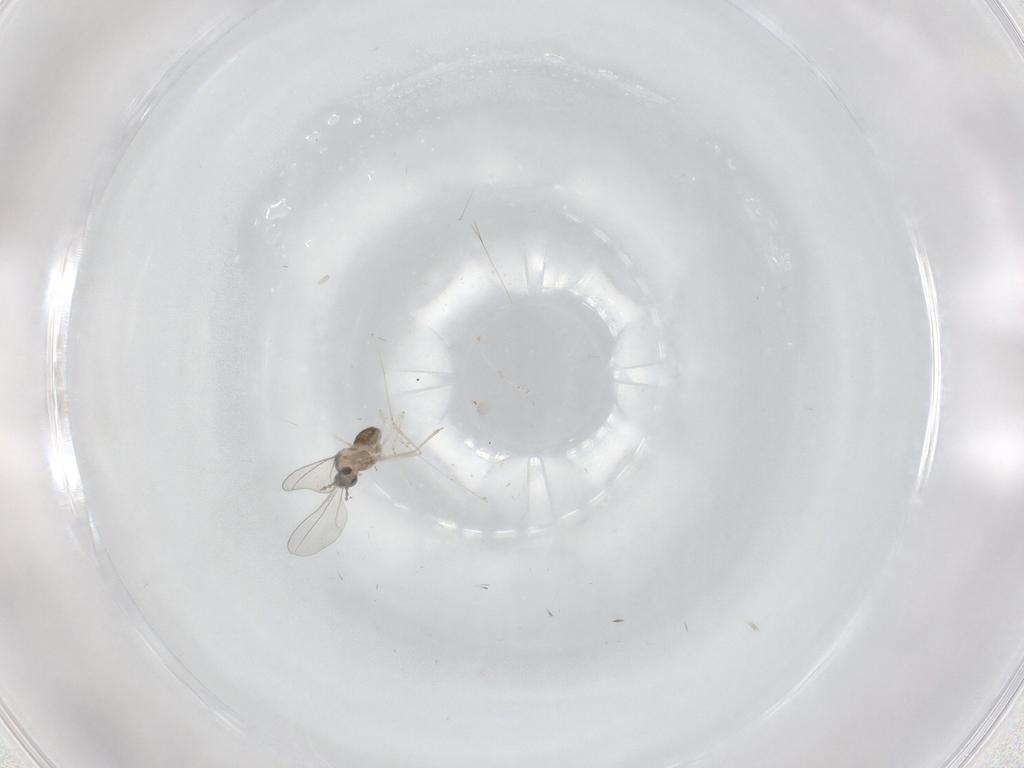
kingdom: Animalia
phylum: Arthropoda
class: Insecta
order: Diptera
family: Cecidomyiidae
